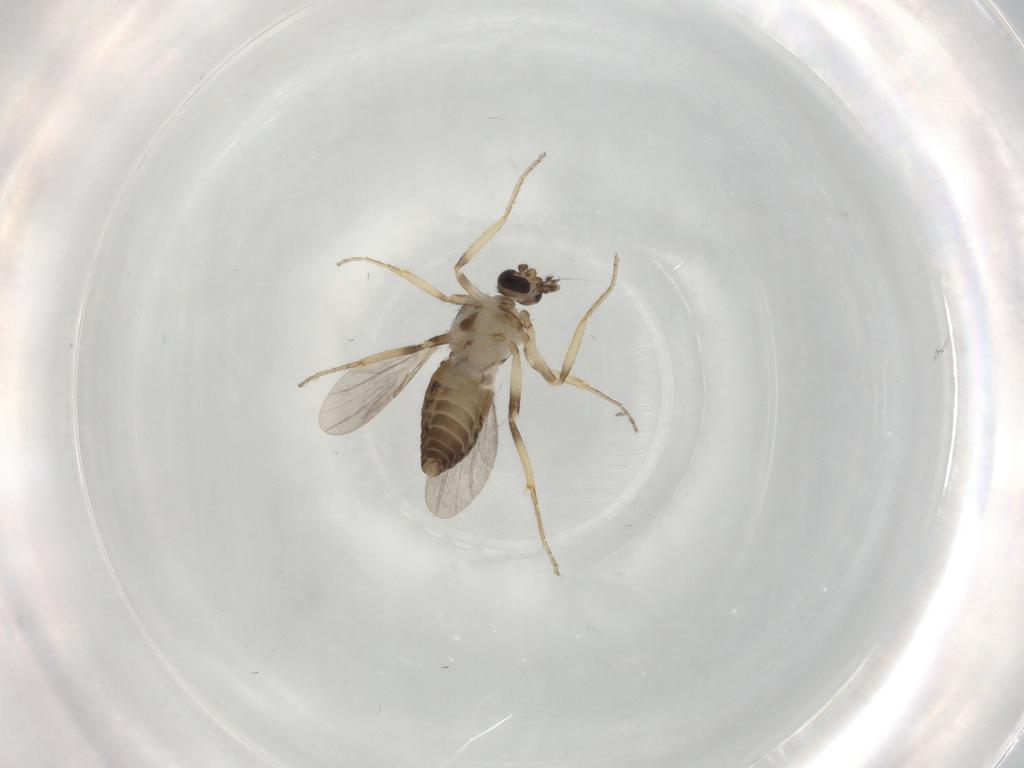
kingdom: Animalia
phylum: Arthropoda
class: Insecta
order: Diptera
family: Ceratopogonidae
